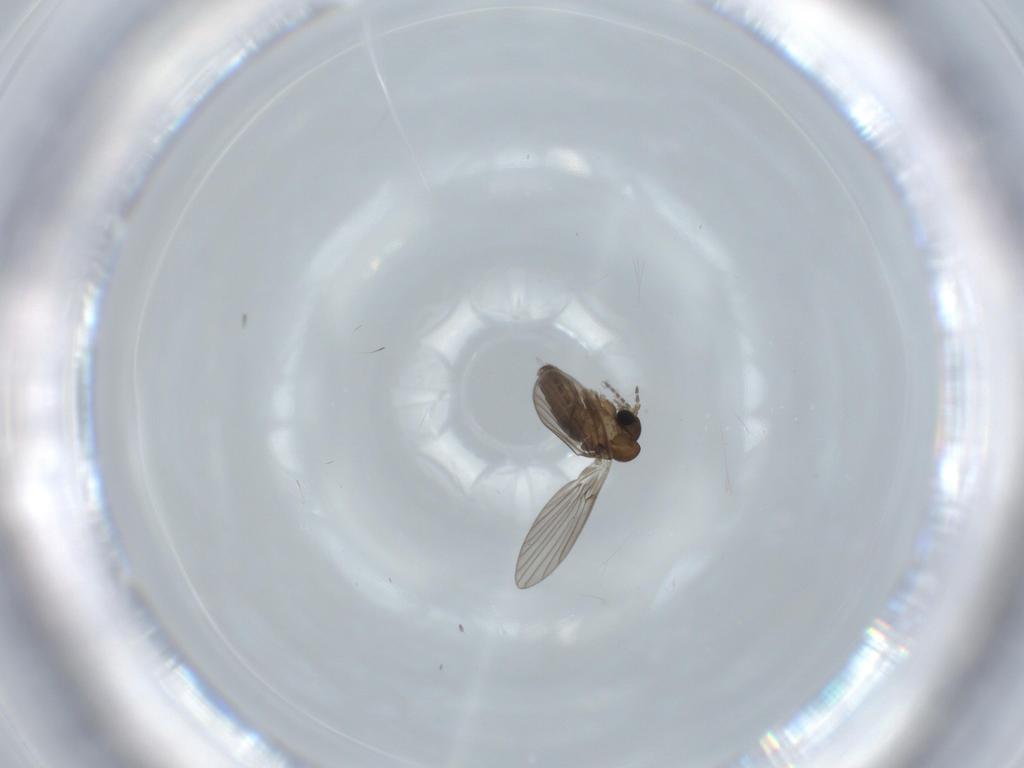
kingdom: Animalia
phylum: Arthropoda
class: Insecta
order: Diptera
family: Psychodidae
